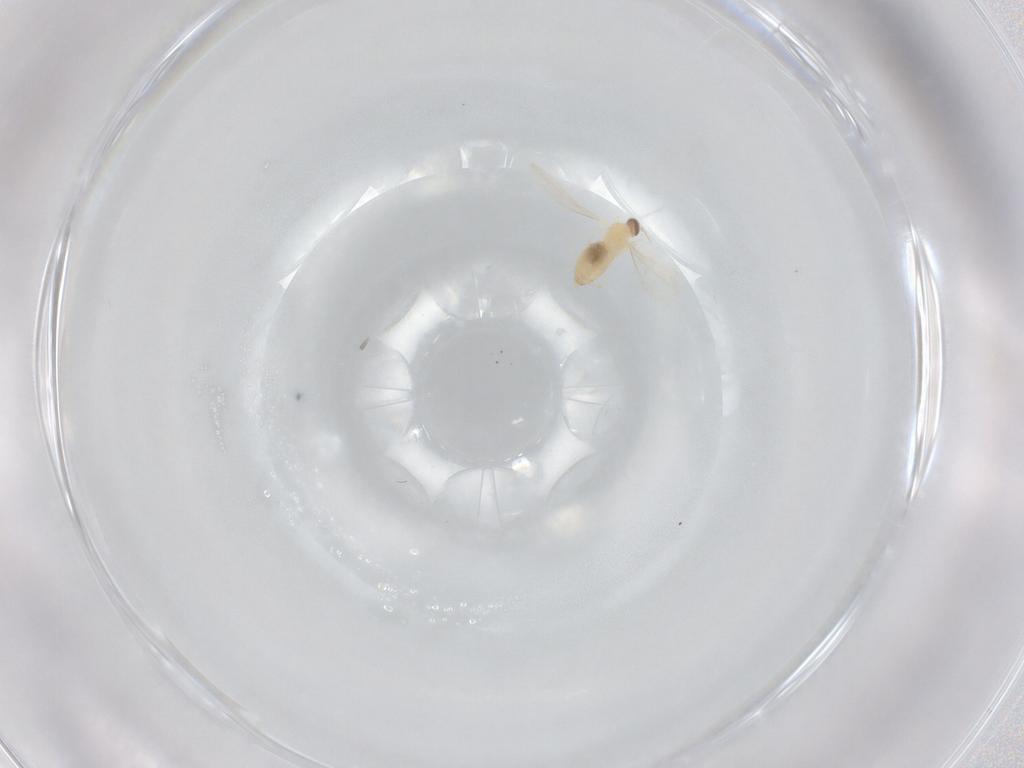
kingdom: Animalia
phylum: Arthropoda
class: Insecta
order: Diptera
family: Cecidomyiidae
